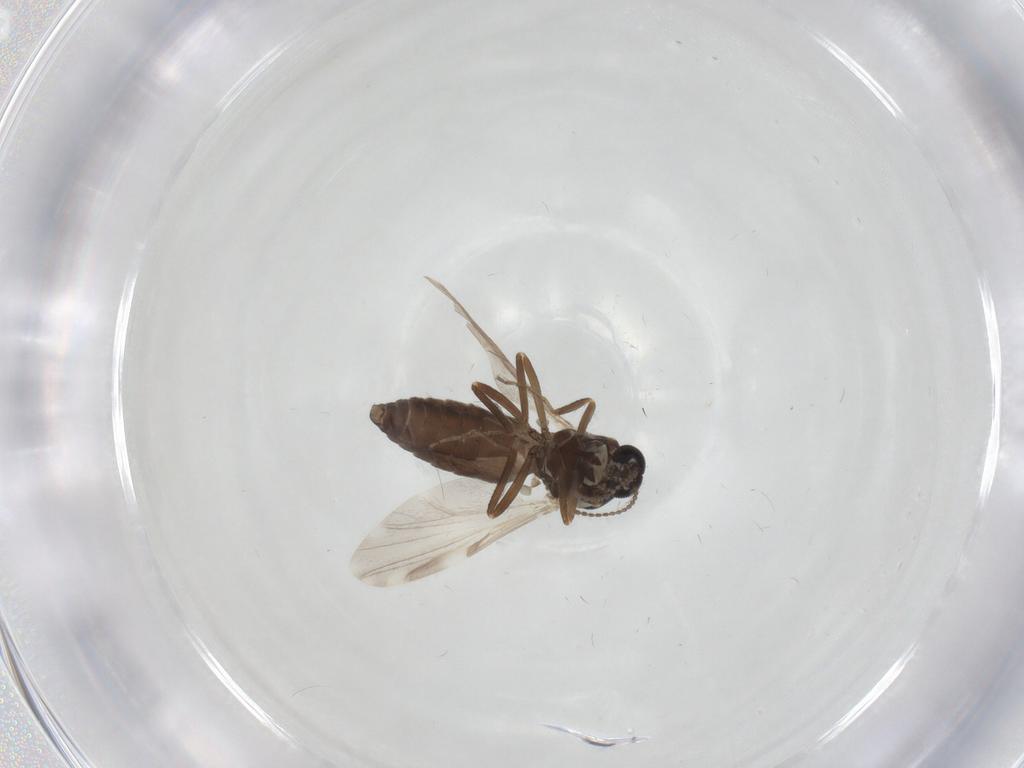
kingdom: Animalia
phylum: Arthropoda
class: Insecta
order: Diptera
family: Ceratopogonidae
